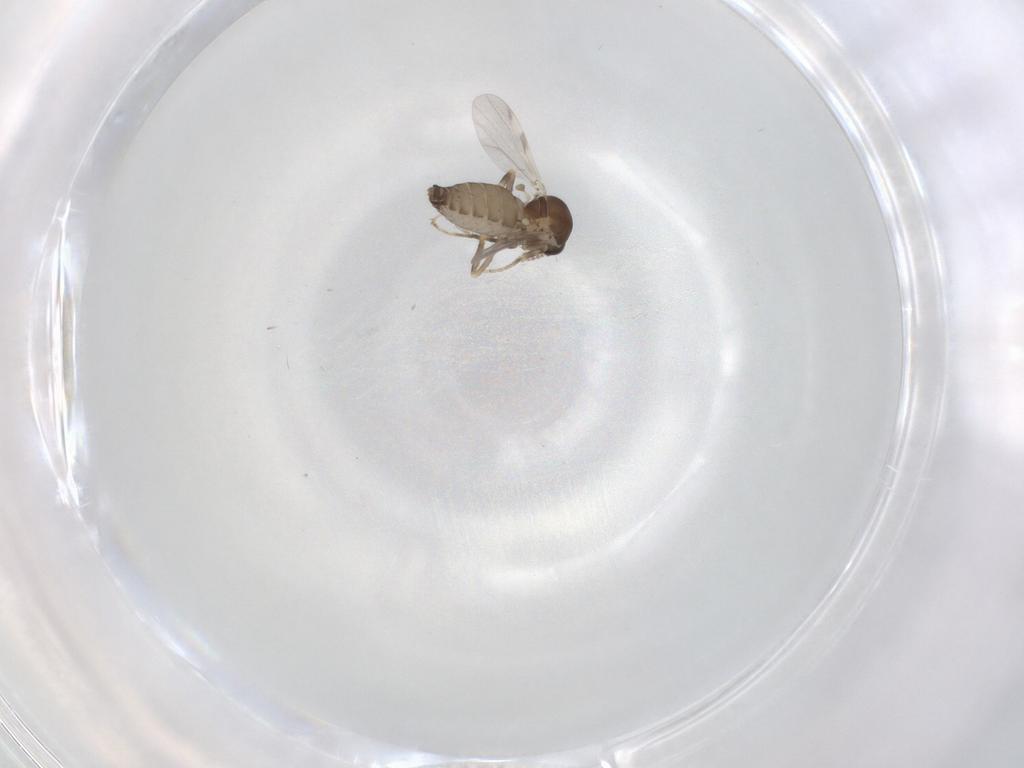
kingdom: Animalia
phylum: Arthropoda
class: Insecta
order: Diptera
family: Ceratopogonidae
